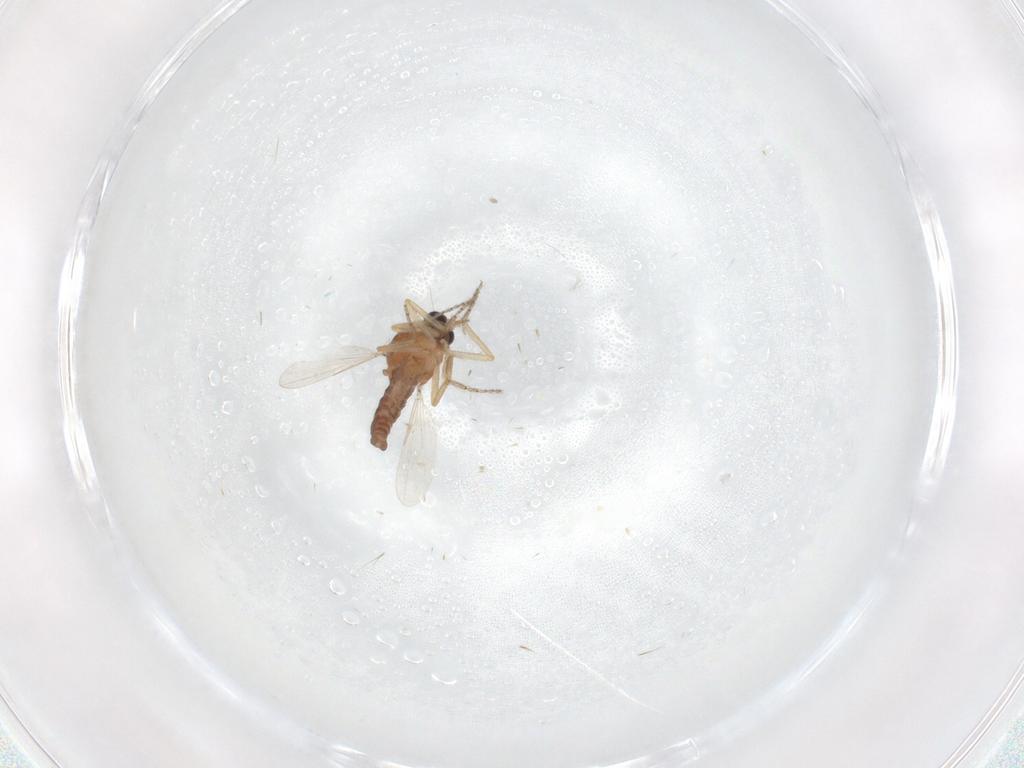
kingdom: Animalia
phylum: Arthropoda
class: Insecta
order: Diptera
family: Ceratopogonidae
